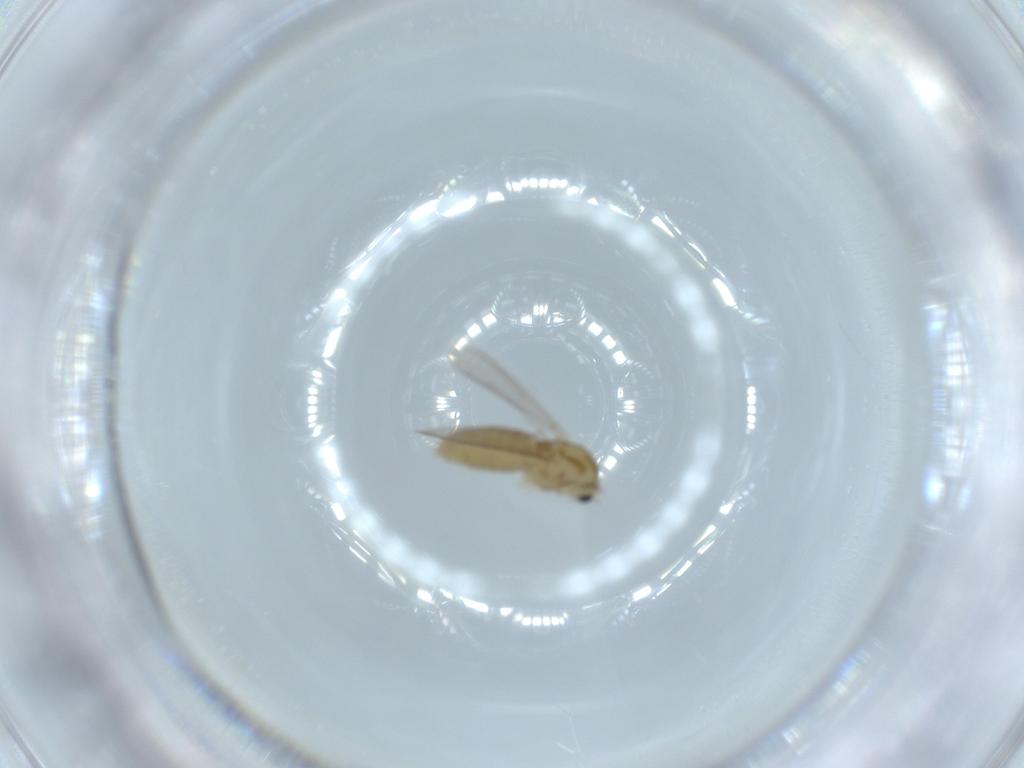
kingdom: Animalia
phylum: Arthropoda
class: Insecta
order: Diptera
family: Chironomidae
